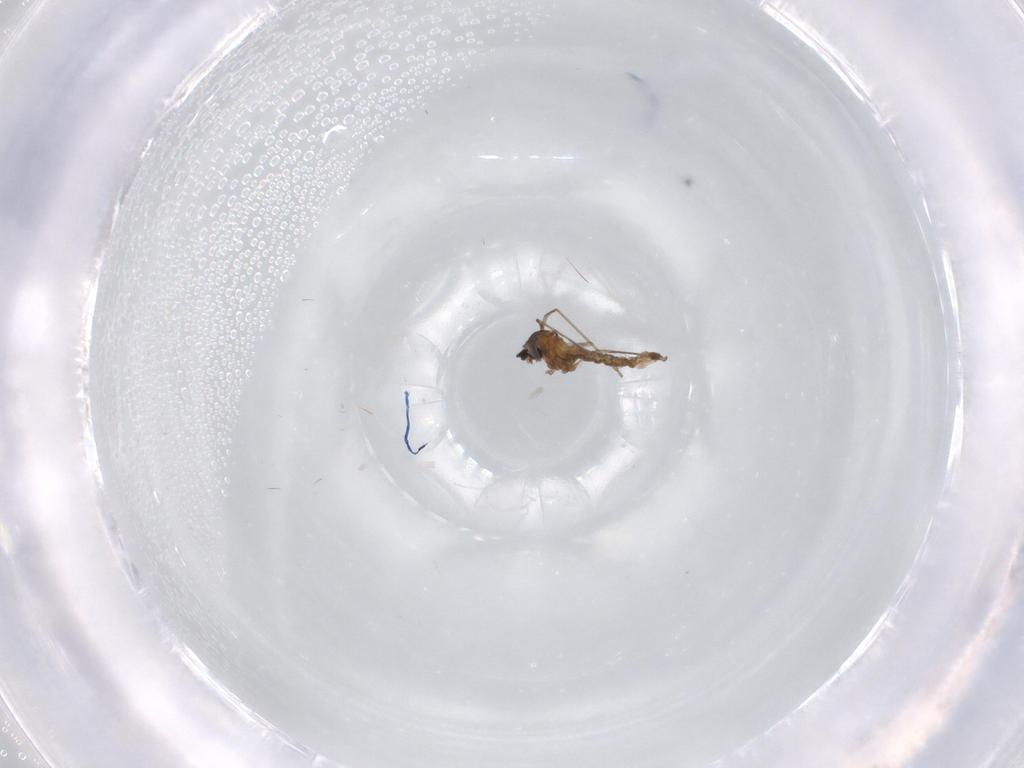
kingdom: Animalia
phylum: Arthropoda
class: Insecta
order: Diptera
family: Cecidomyiidae
